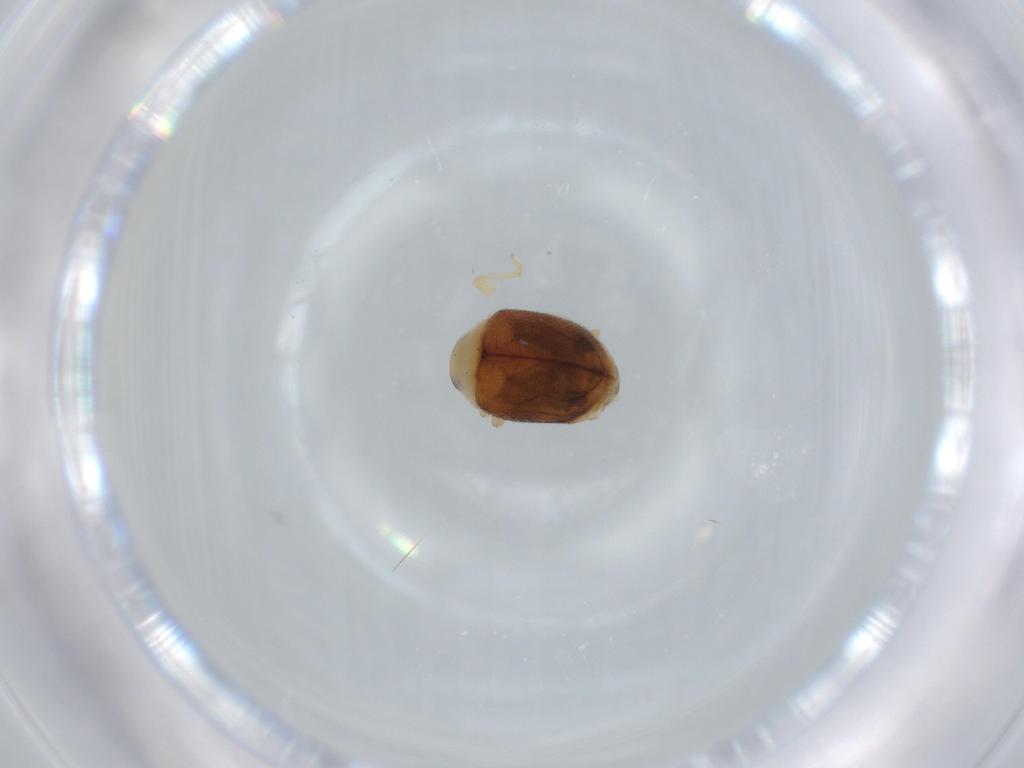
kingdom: Animalia
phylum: Arthropoda
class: Insecta
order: Coleoptera
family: Coccinellidae
